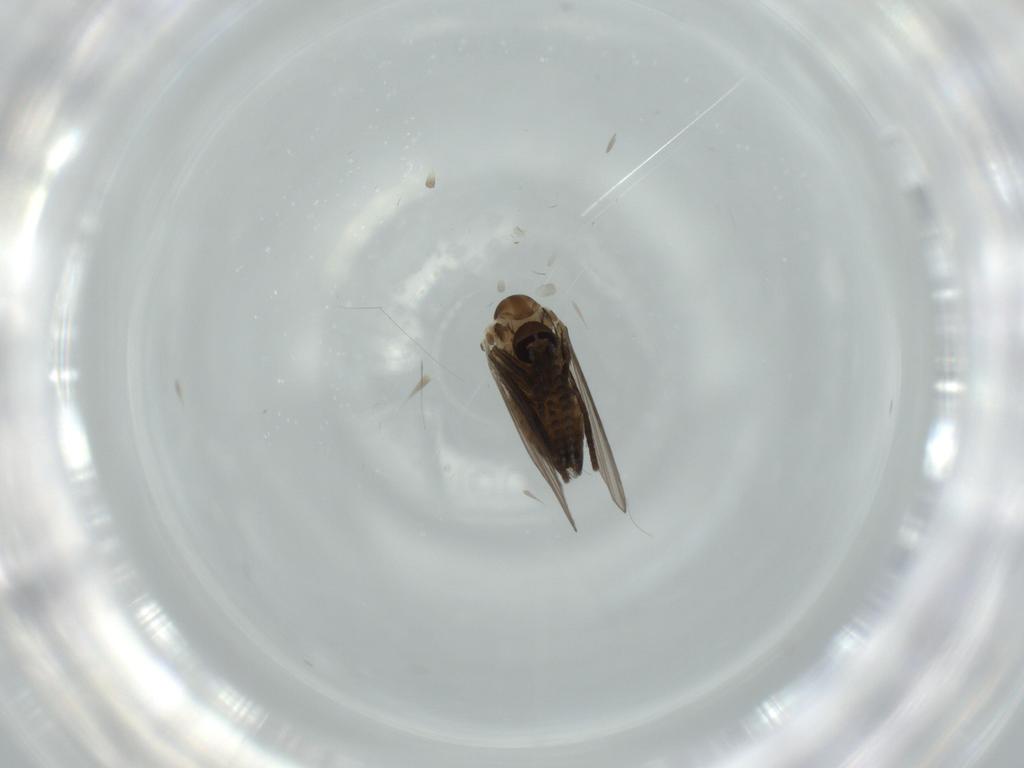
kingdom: Animalia
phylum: Arthropoda
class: Insecta
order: Diptera
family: Psychodidae
